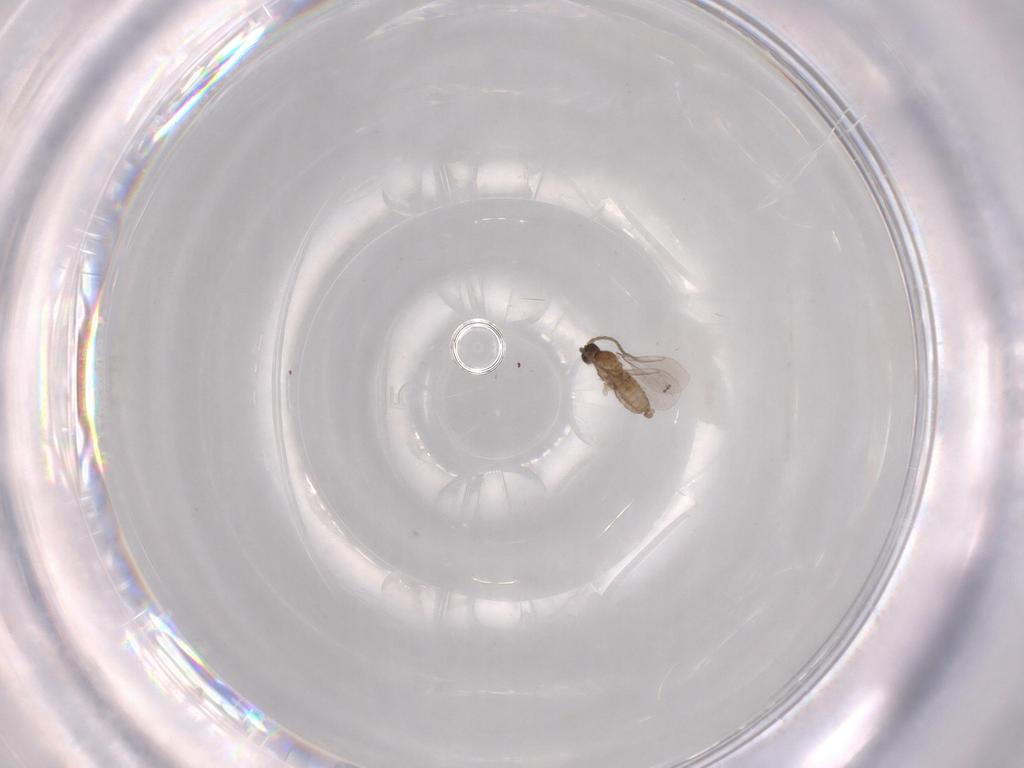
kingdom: Animalia
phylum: Arthropoda
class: Insecta
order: Diptera
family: Cecidomyiidae
